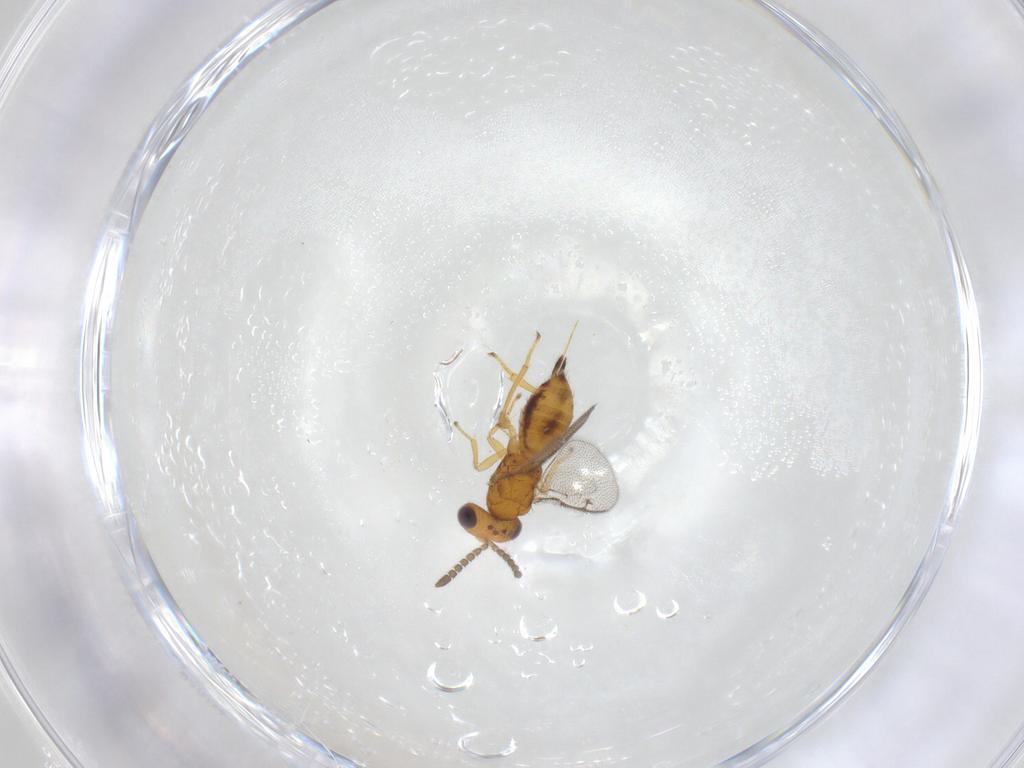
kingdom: Animalia
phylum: Arthropoda
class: Insecta
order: Hymenoptera
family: Pirenidae
